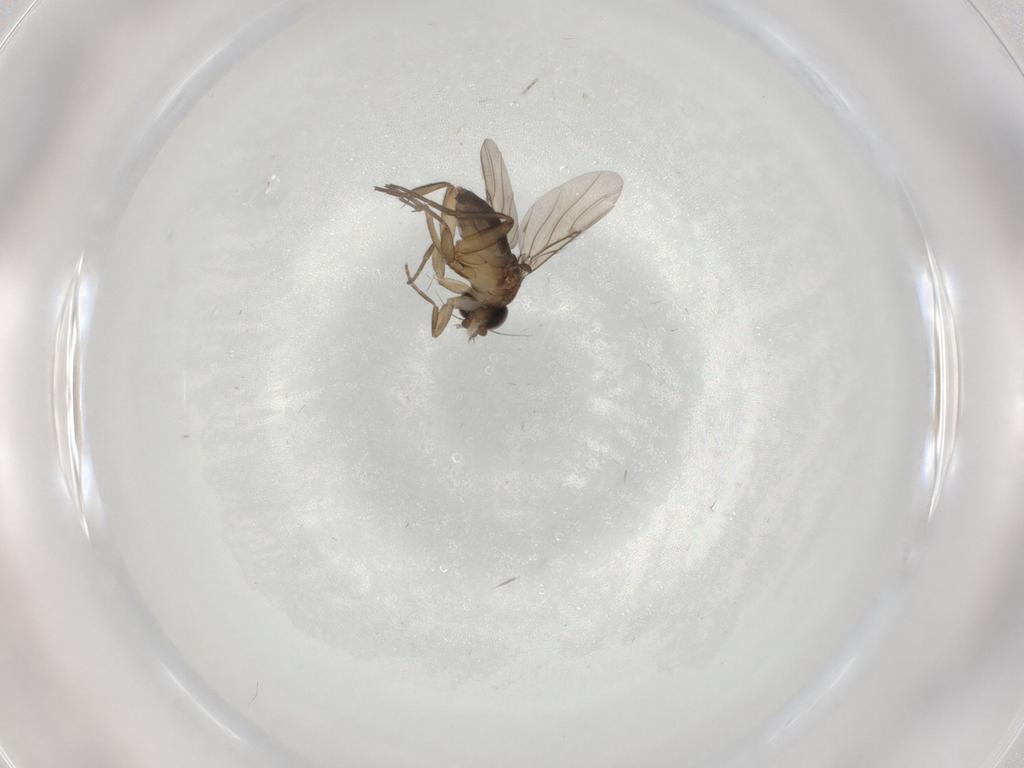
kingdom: Animalia
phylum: Arthropoda
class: Insecta
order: Diptera
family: Phoridae
